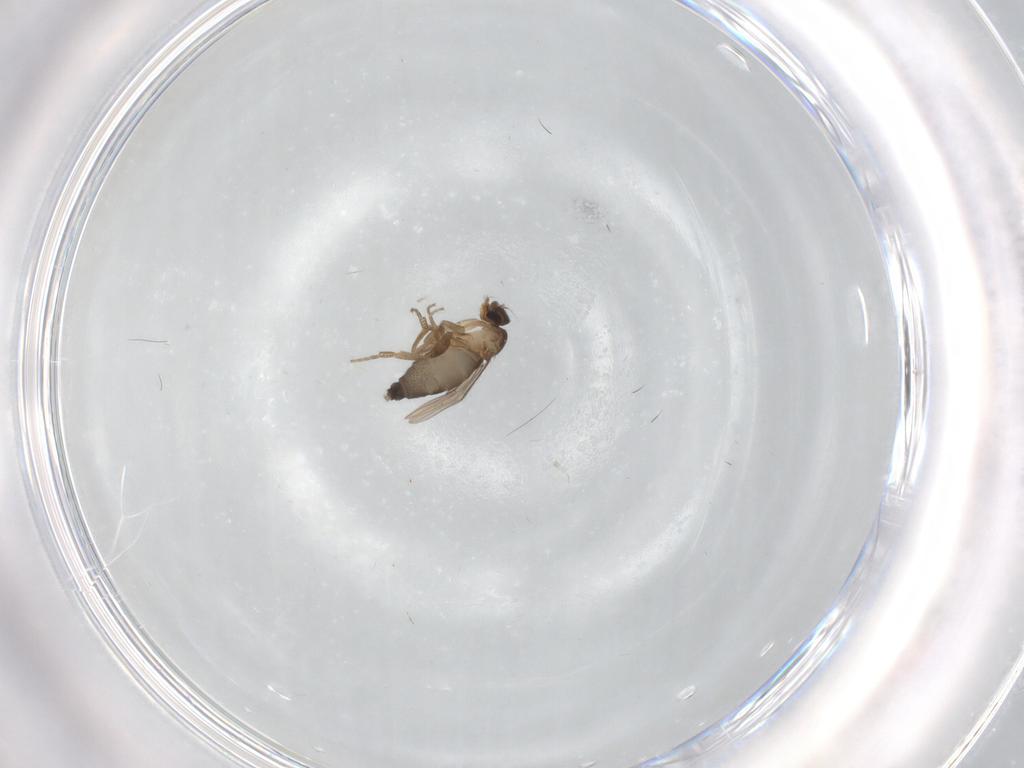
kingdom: Animalia
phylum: Arthropoda
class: Insecta
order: Diptera
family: Phoridae
